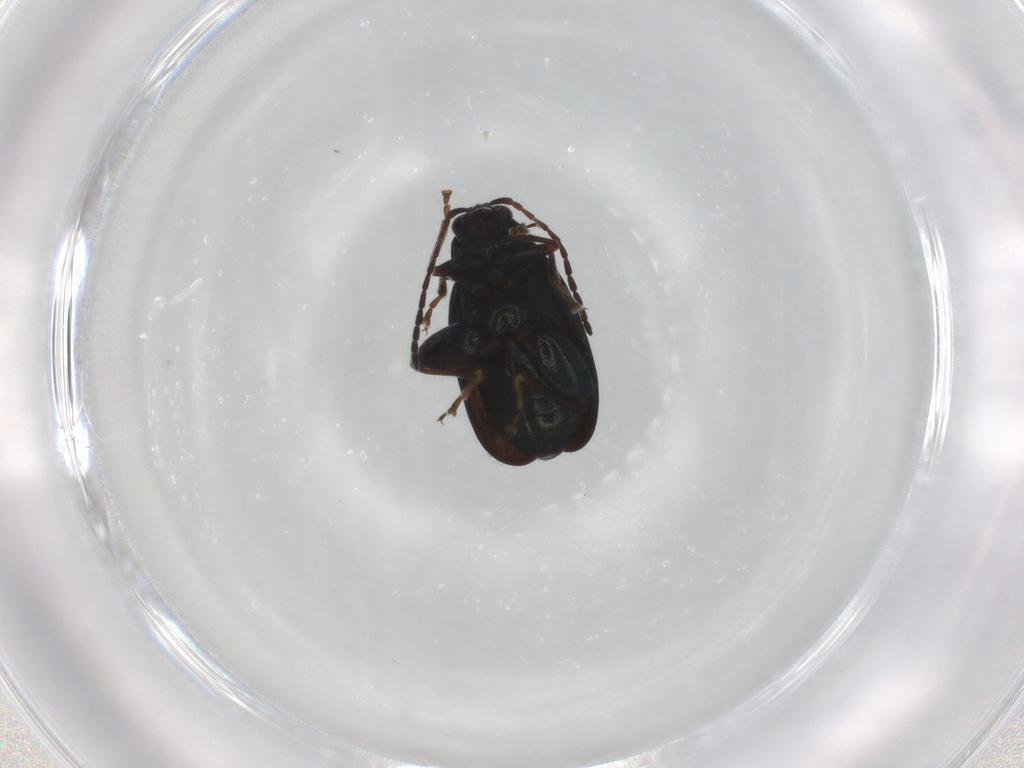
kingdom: Animalia
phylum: Arthropoda
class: Insecta
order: Coleoptera
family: Chrysomelidae
